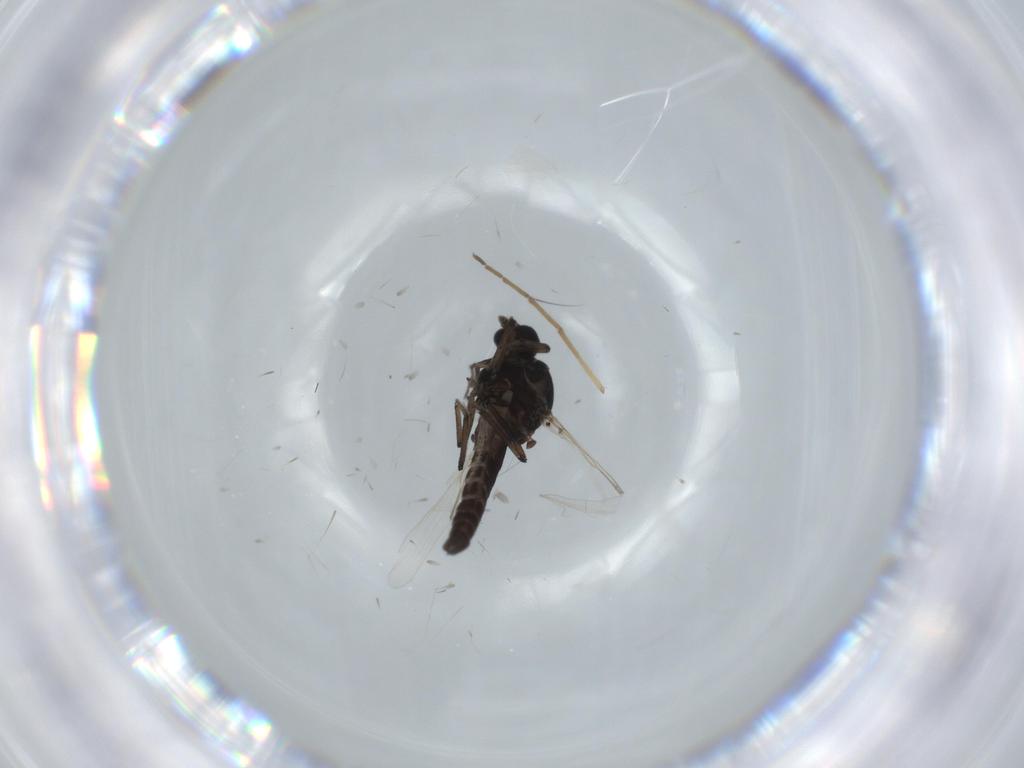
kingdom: Animalia
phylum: Arthropoda
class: Insecta
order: Diptera
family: Ceratopogonidae
